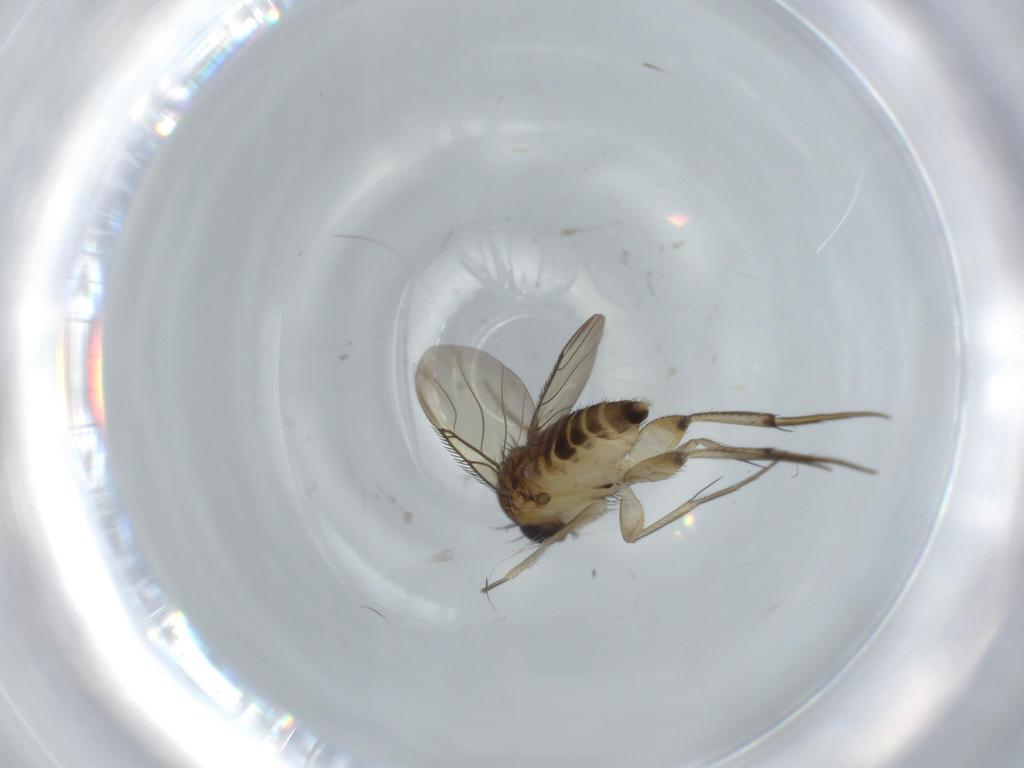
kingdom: Animalia
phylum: Arthropoda
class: Insecta
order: Diptera
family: Phoridae
